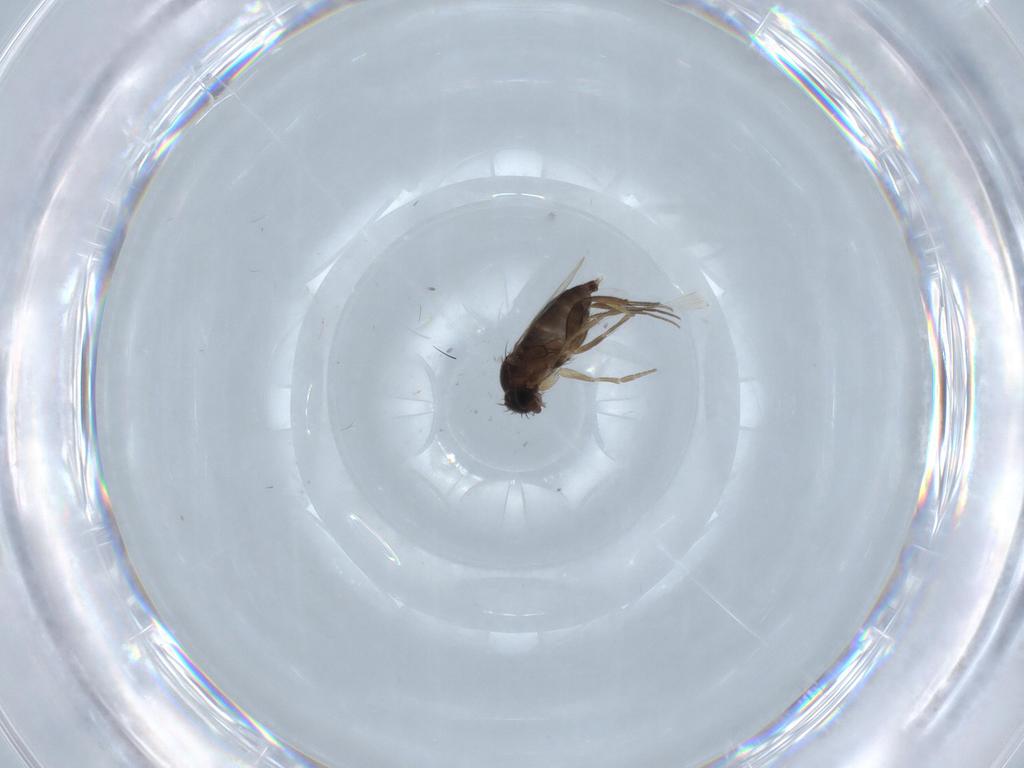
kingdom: Animalia
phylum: Arthropoda
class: Insecta
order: Diptera
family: Phoridae
